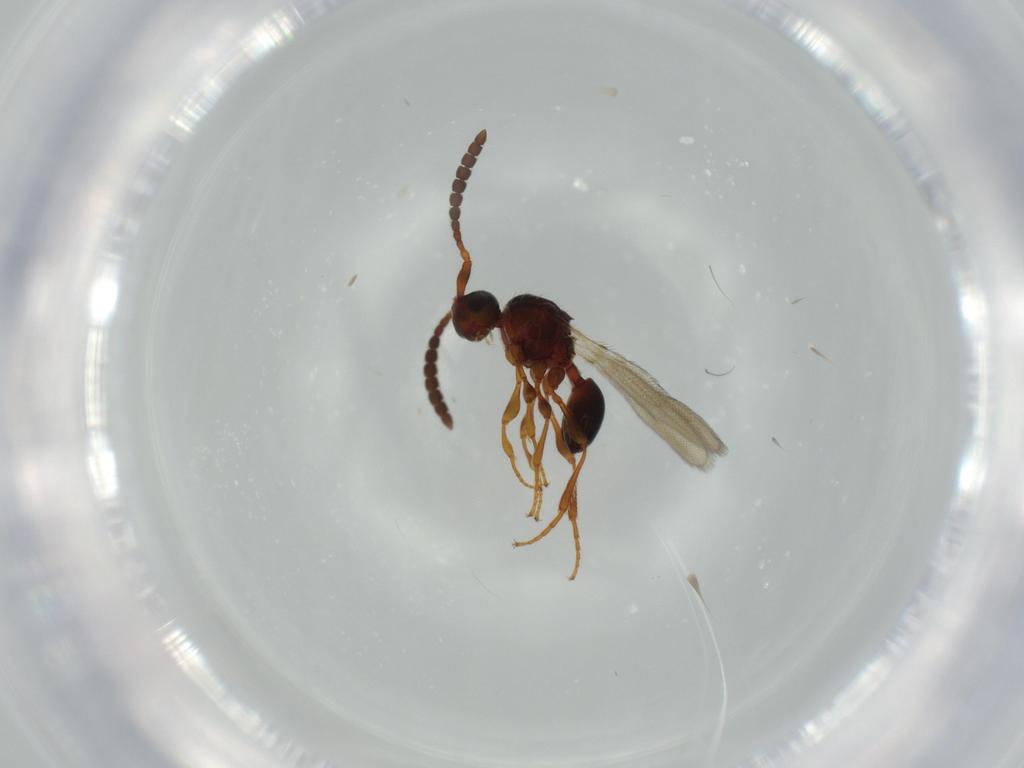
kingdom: Animalia
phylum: Arthropoda
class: Insecta
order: Hymenoptera
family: Diapriidae
